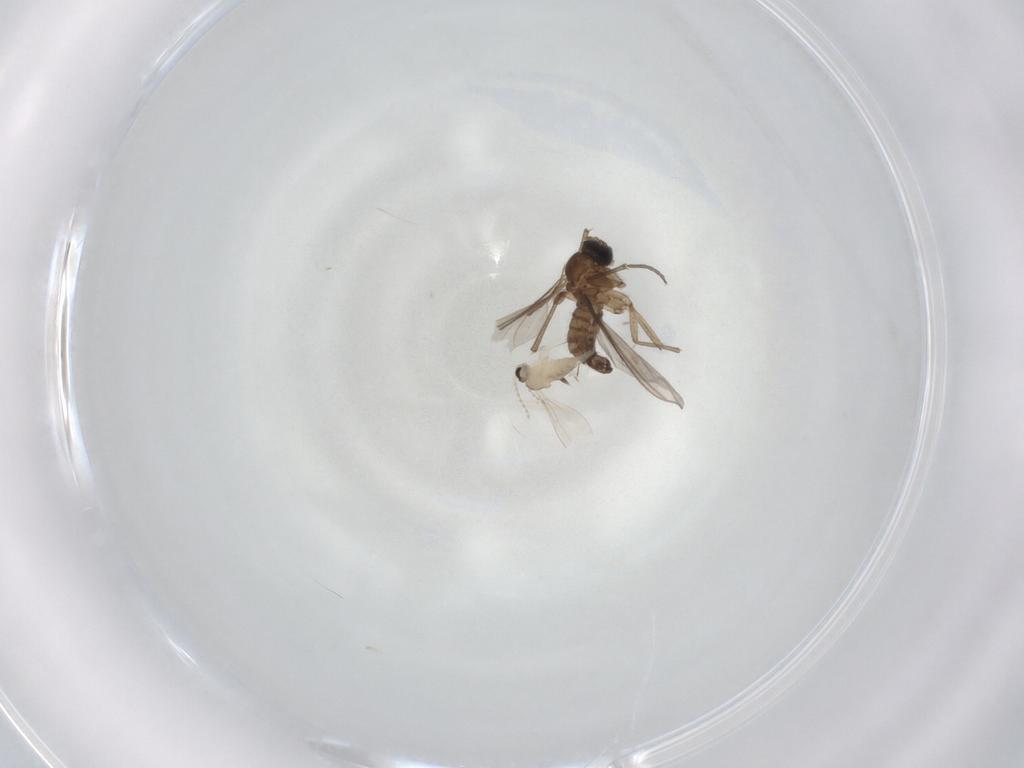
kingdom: Animalia
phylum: Arthropoda
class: Insecta
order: Diptera
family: Sciaridae
